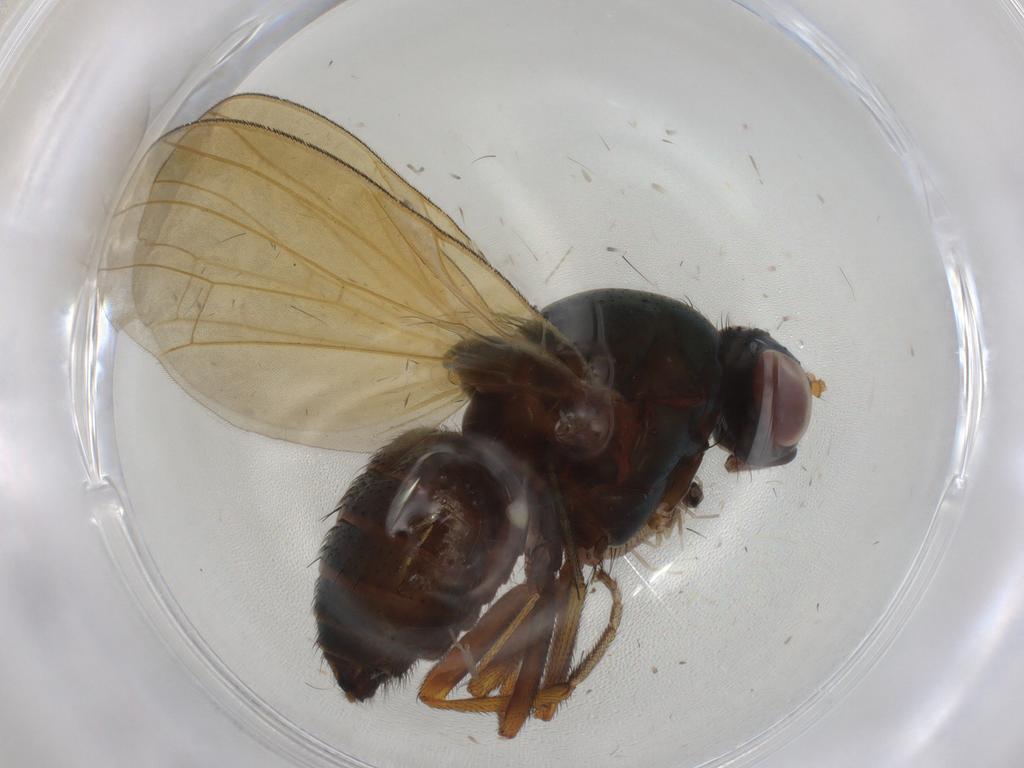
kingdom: Animalia
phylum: Arthropoda
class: Insecta
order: Diptera
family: Cecidomyiidae
